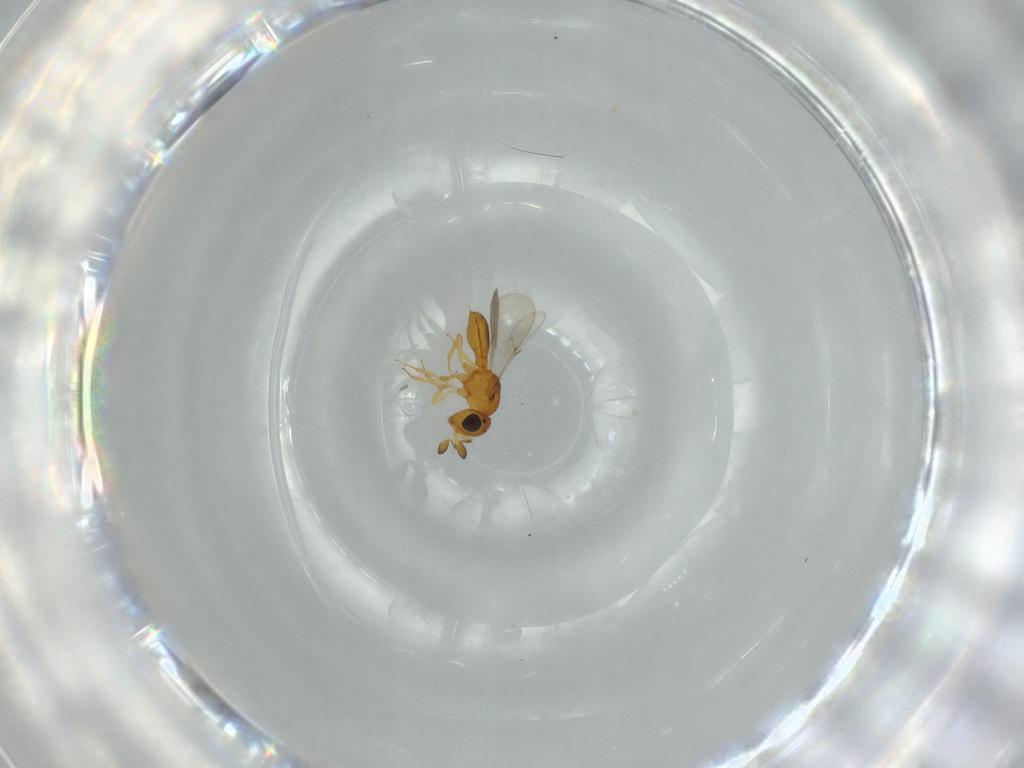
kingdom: Animalia
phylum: Arthropoda
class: Insecta
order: Hymenoptera
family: Scelionidae
